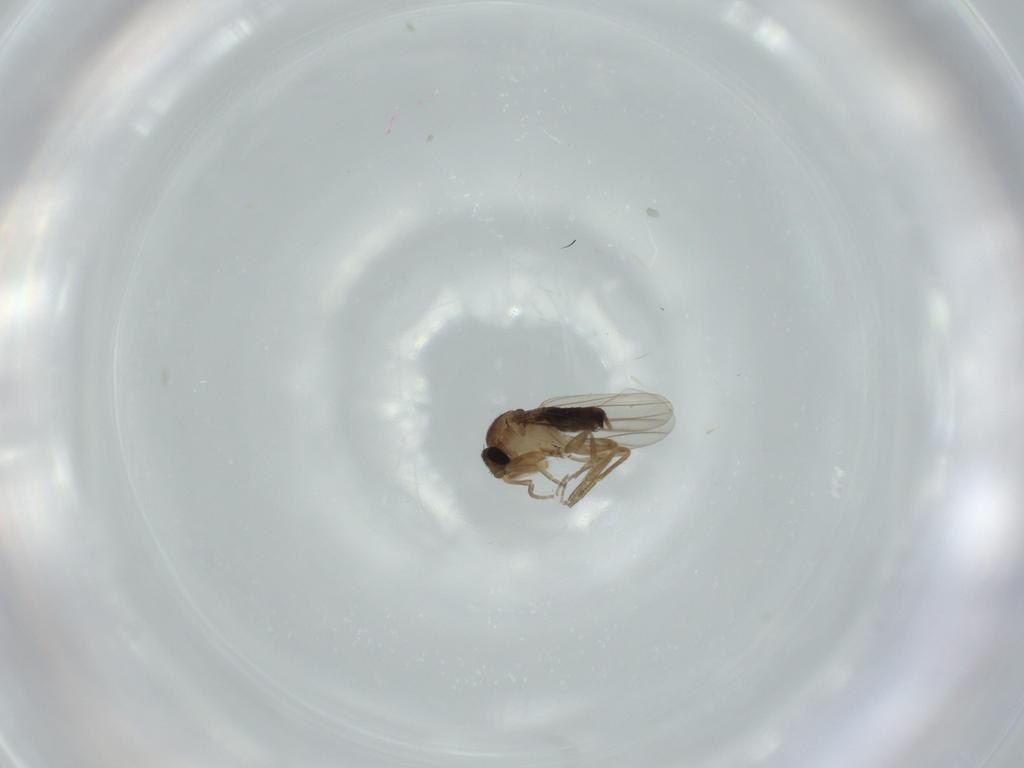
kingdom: Animalia
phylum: Arthropoda
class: Insecta
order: Diptera
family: Phoridae
